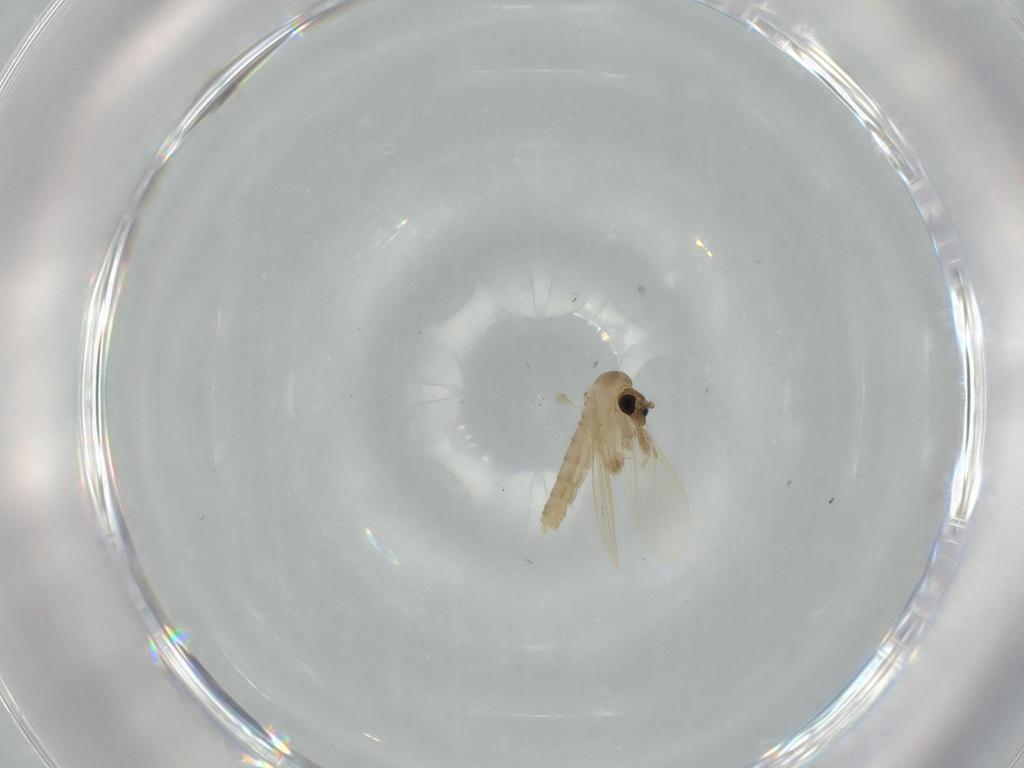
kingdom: Animalia
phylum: Arthropoda
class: Insecta
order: Diptera
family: Psychodidae
